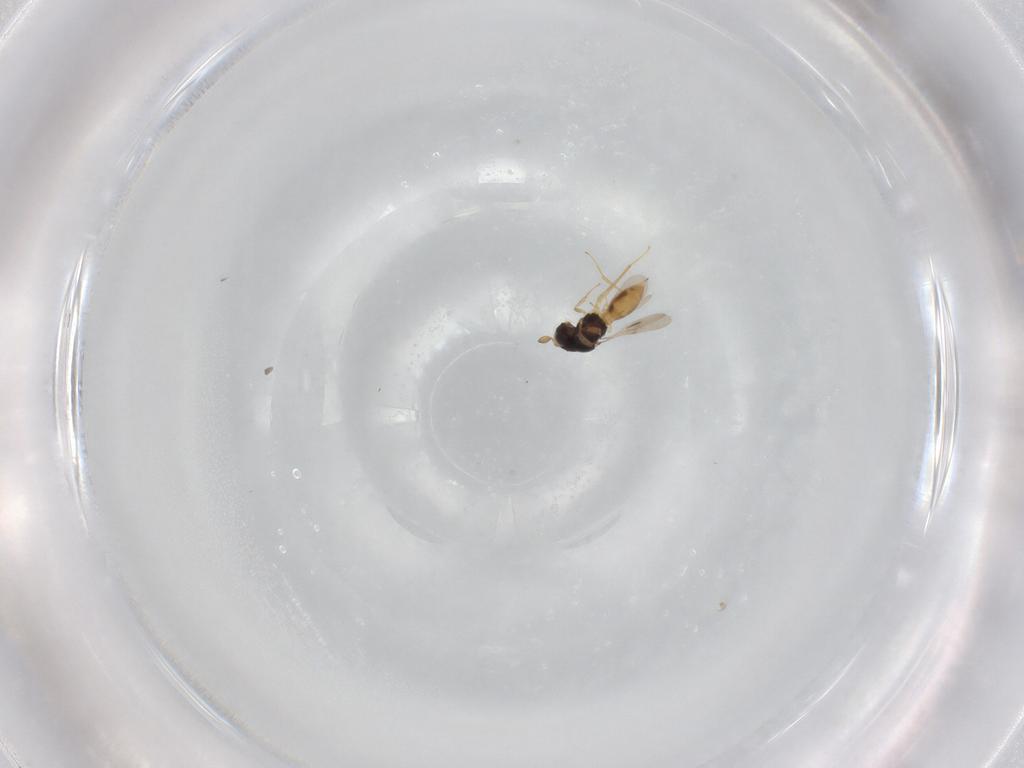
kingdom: Animalia
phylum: Arthropoda
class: Insecta
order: Hymenoptera
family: Scelionidae
